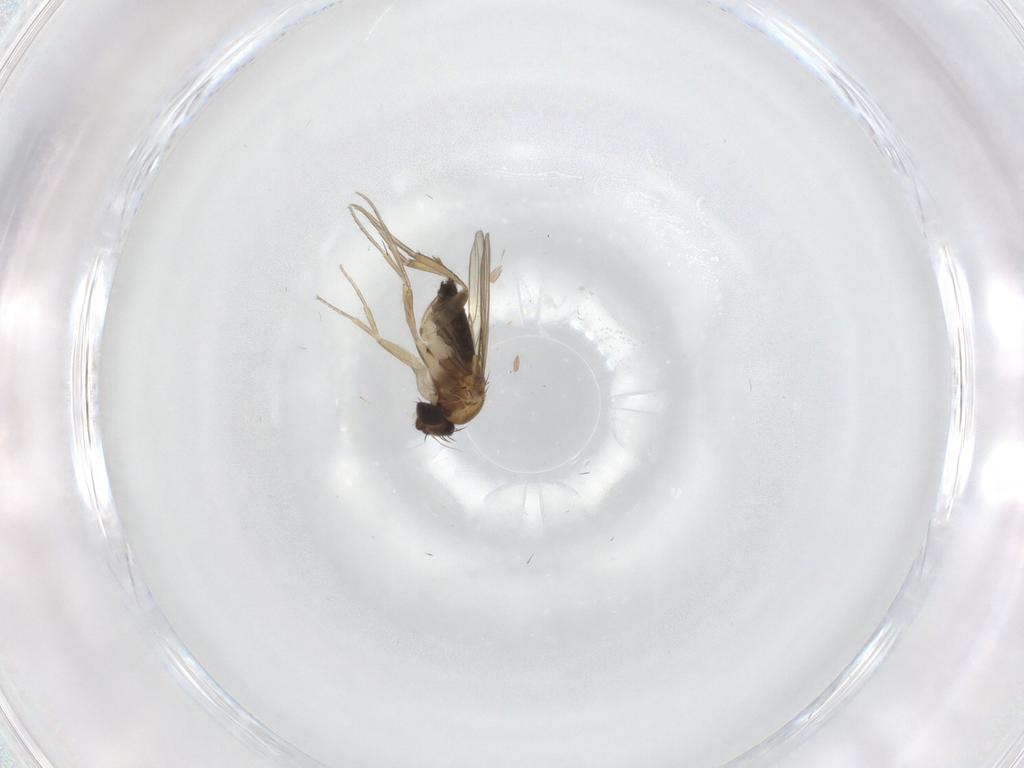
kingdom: Animalia
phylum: Arthropoda
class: Insecta
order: Diptera
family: Phoridae
